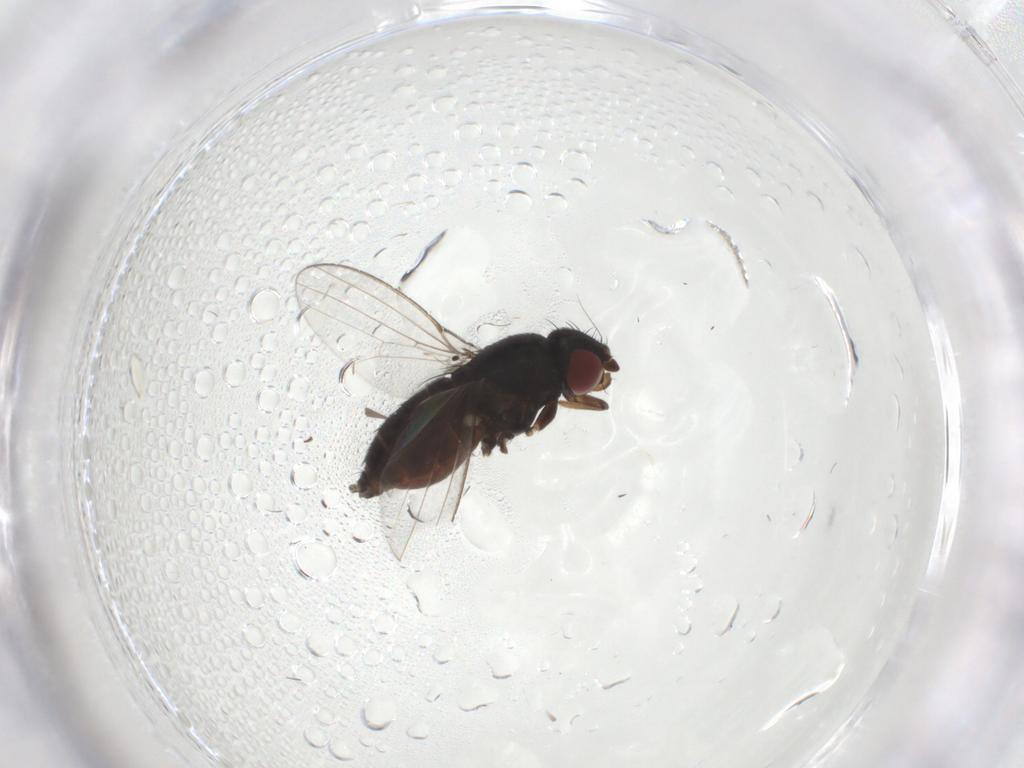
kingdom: Animalia
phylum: Arthropoda
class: Insecta
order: Diptera
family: Milichiidae
